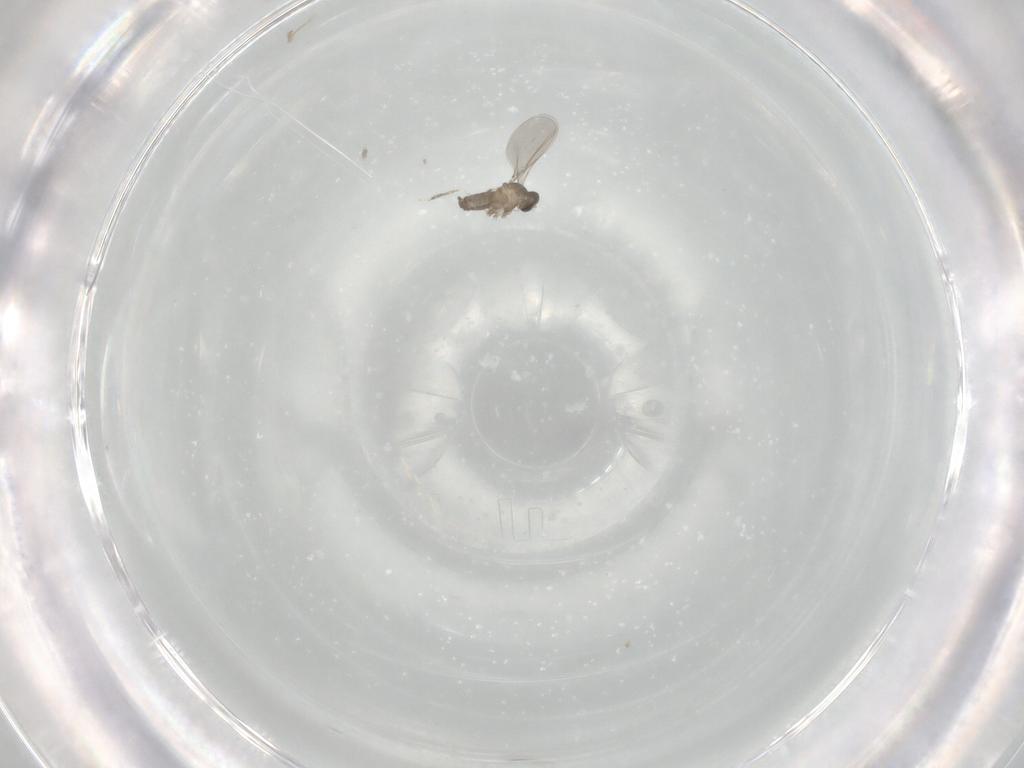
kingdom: Animalia
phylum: Arthropoda
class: Insecta
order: Diptera
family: Cecidomyiidae
